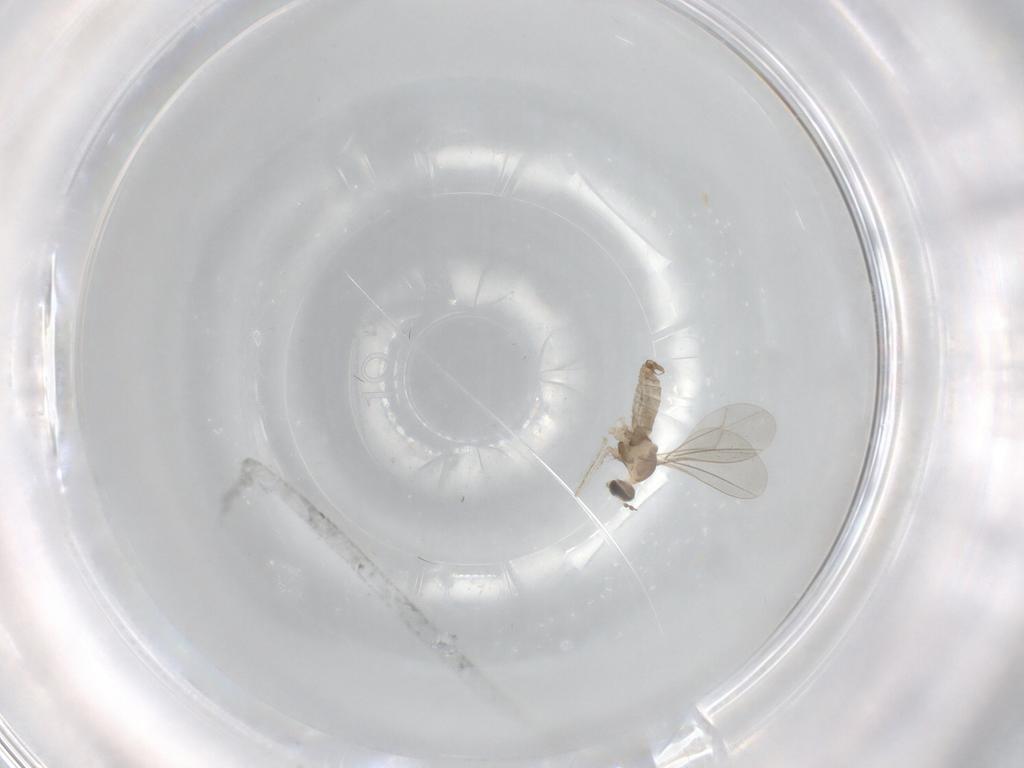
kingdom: Animalia
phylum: Arthropoda
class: Insecta
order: Diptera
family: Cecidomyiidae
